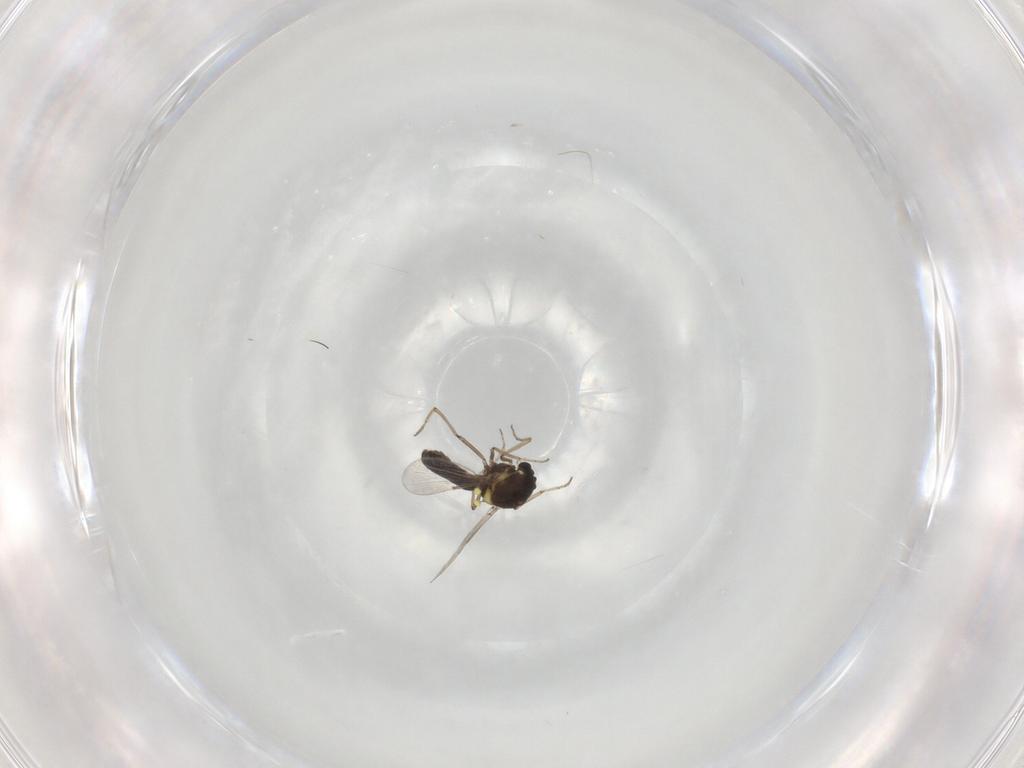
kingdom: Animalia
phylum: Arthropoda
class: Insecta
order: Diptera
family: Ceratopogonidae
